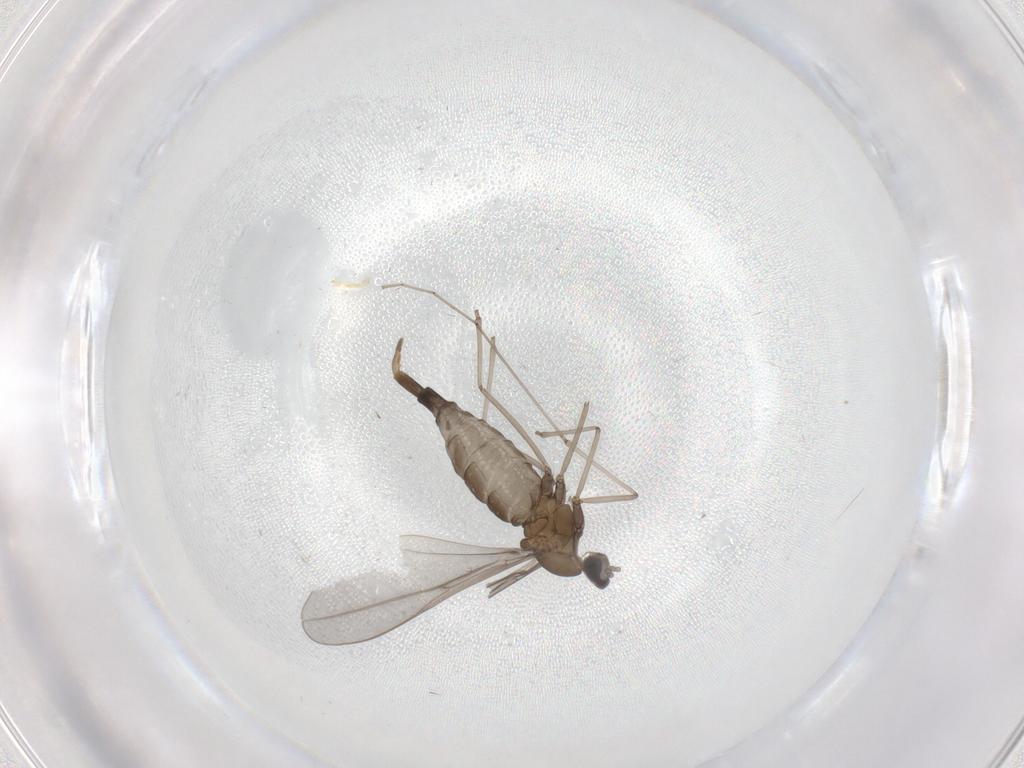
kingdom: Animalia
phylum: Arthropoda
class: Insecta
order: Diptera
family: Cecidomyiidae
